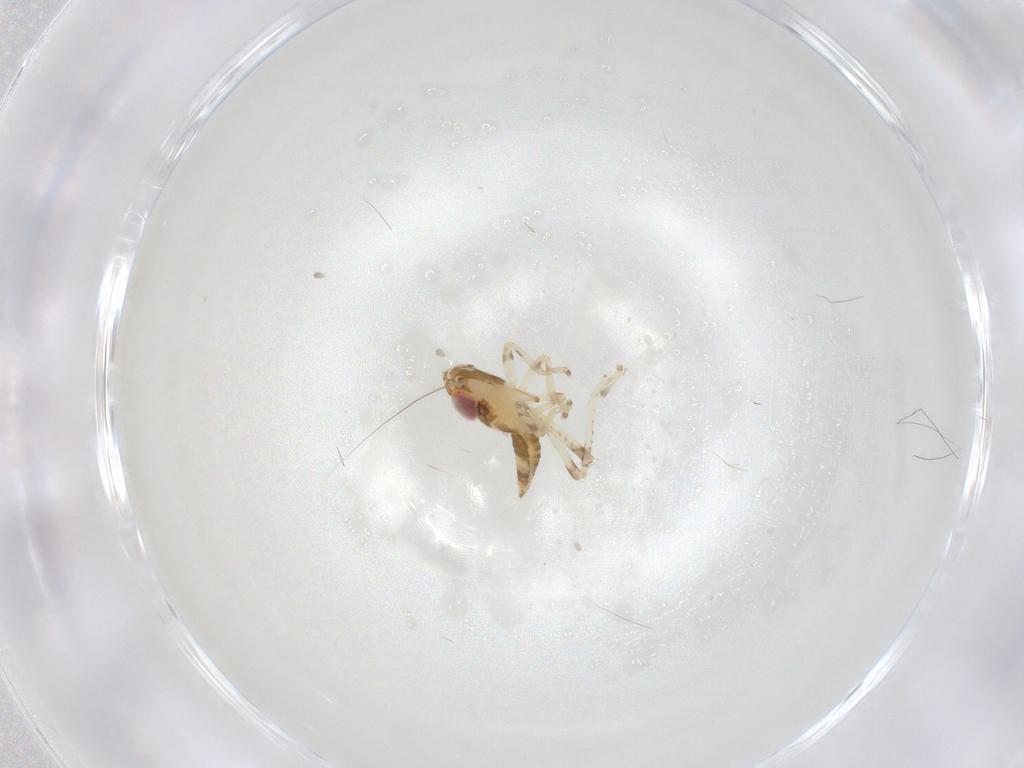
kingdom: Animalia
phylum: Arthropoda
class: Insecta
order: Hemiptera
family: Cicadellidae
